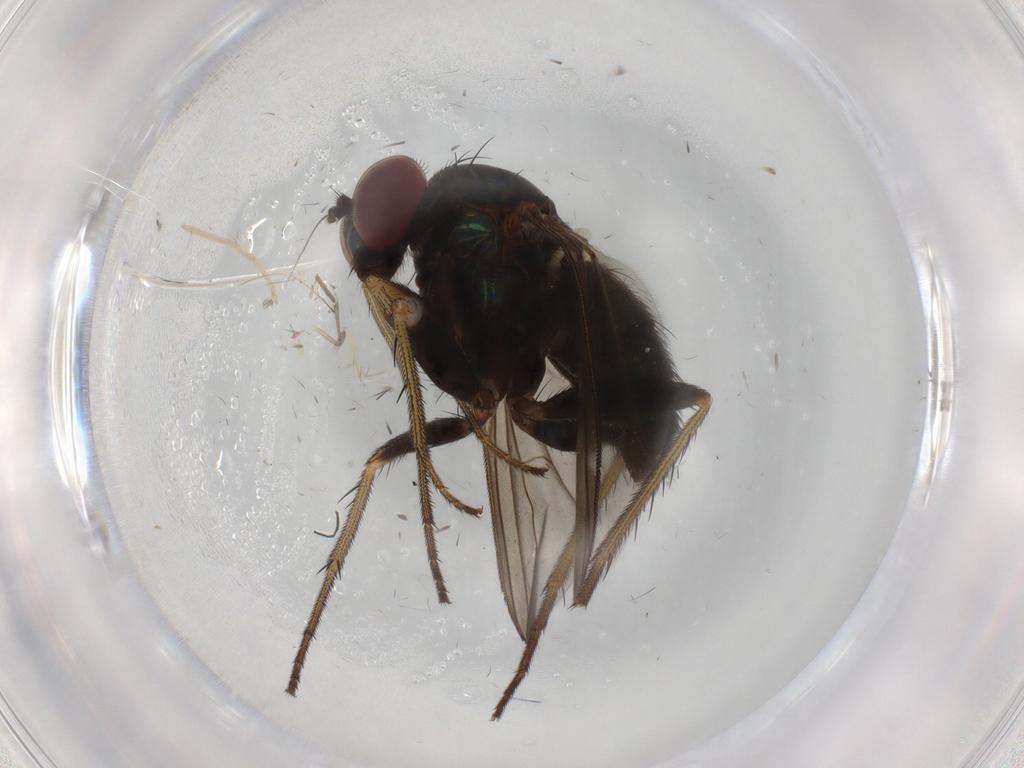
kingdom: Animalia
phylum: Arthropoda
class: Insecta
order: Diptera
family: Dolichopodidae
